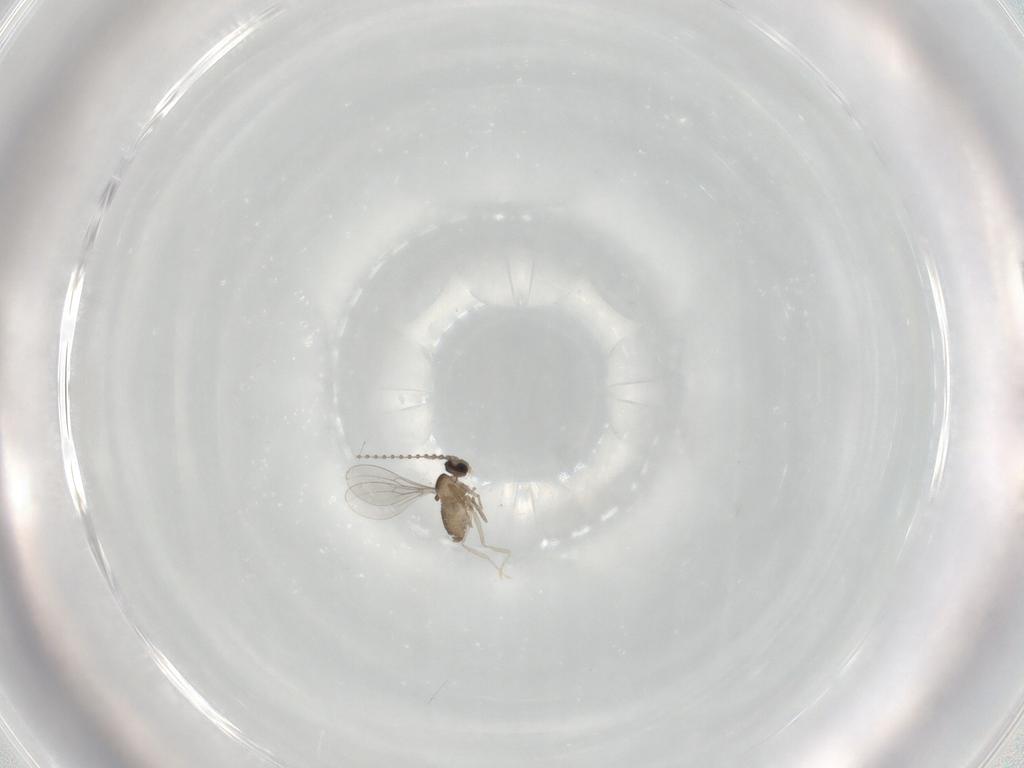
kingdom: Animalia
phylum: Arthropoda
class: Insecta
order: Diptera
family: Cecidomyiidae
